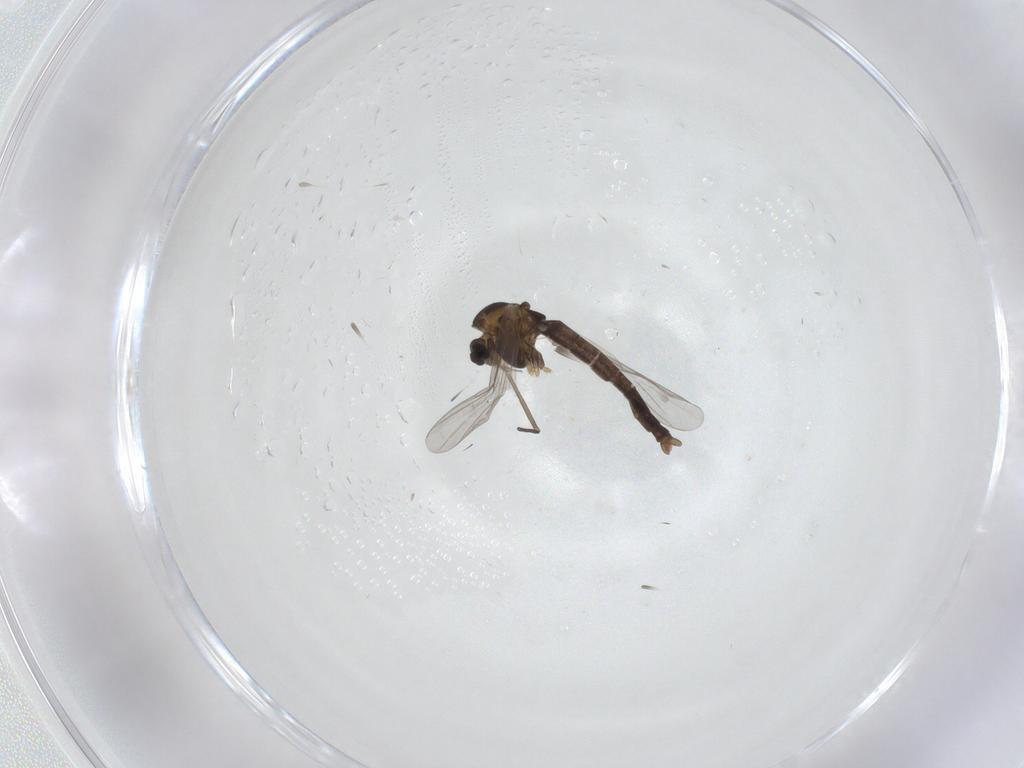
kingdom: Animalia
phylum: Arthropoda
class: Insecta
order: Diptera
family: Chironomidae
